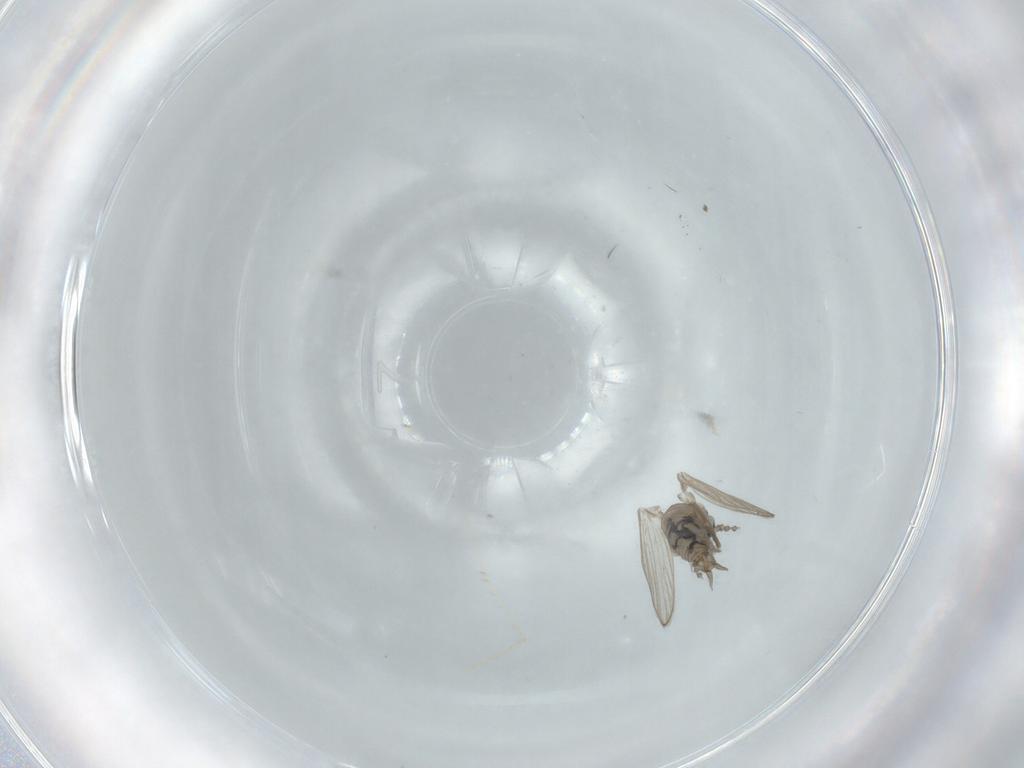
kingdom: Animalia
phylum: Arthropoda
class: Insecta
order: Diptera
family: Psychodidae
